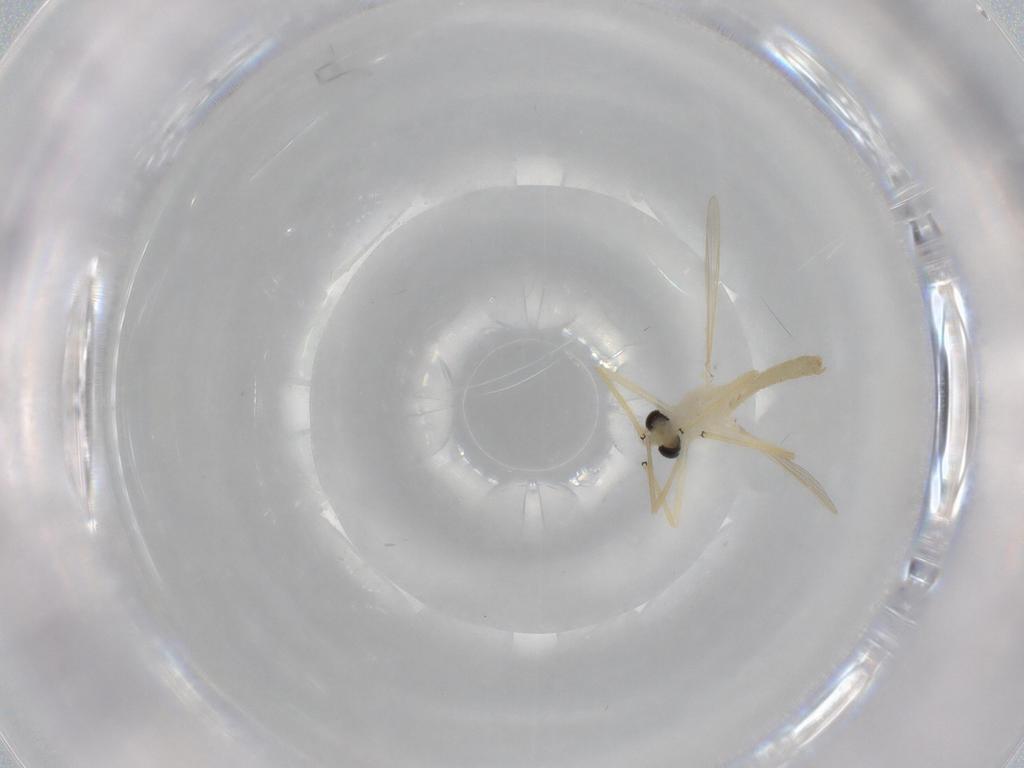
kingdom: Animalia
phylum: Arthropoda
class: Insecta
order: Diptera
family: Chironomidae
